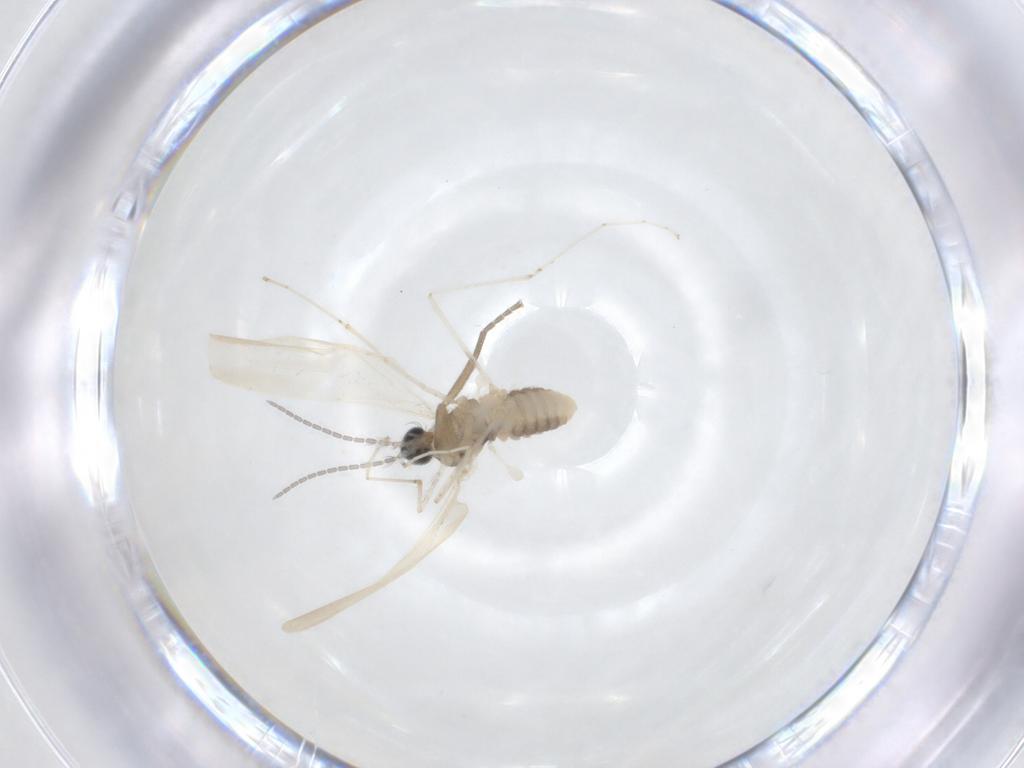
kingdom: Animalia
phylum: Arthropoda
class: Insecta
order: Diptera
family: Cecidomyiidae
